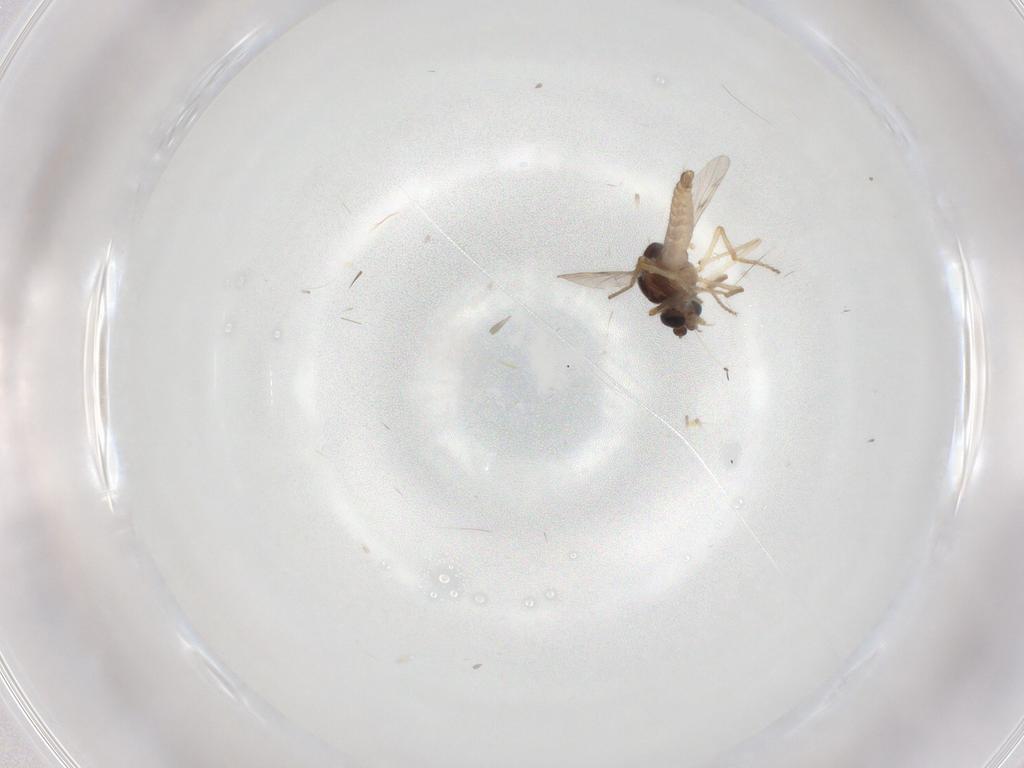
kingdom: Animalia
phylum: Arthropoda
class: Insecta
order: Diptera
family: Ceratopogonidae
